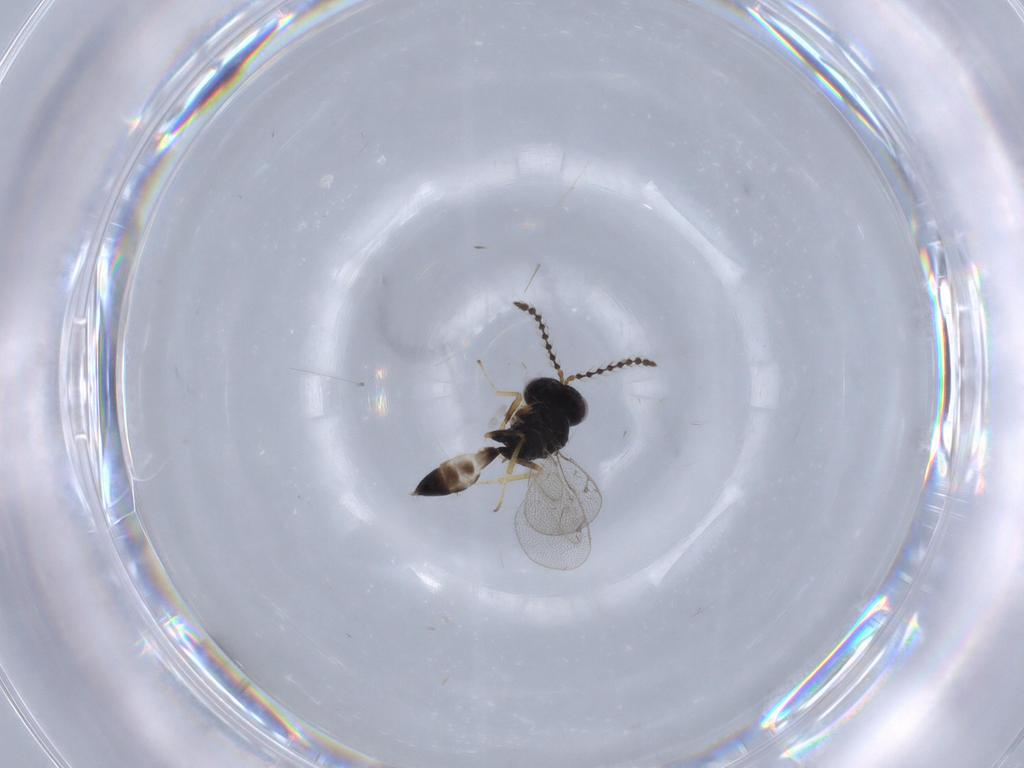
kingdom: Animalia
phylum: Arthropoda
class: Insecta
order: Hymenoptera
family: Pteromalidae
